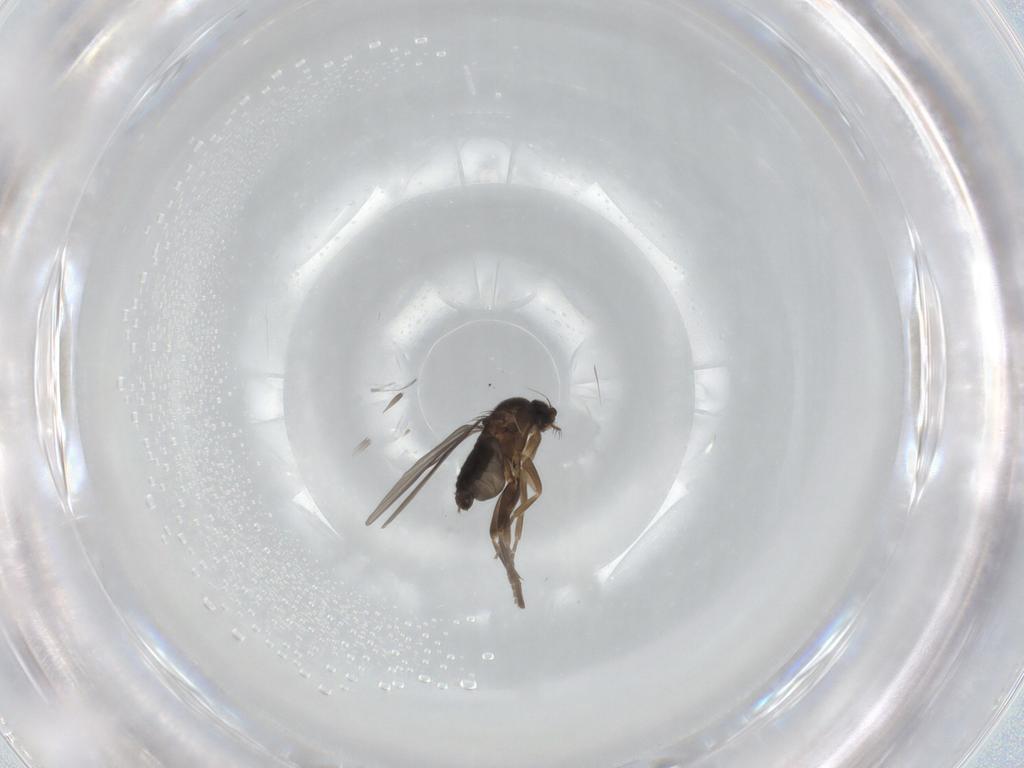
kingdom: Animalia
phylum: Arthropoda
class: Insecta
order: Diptera
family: Phoridae
